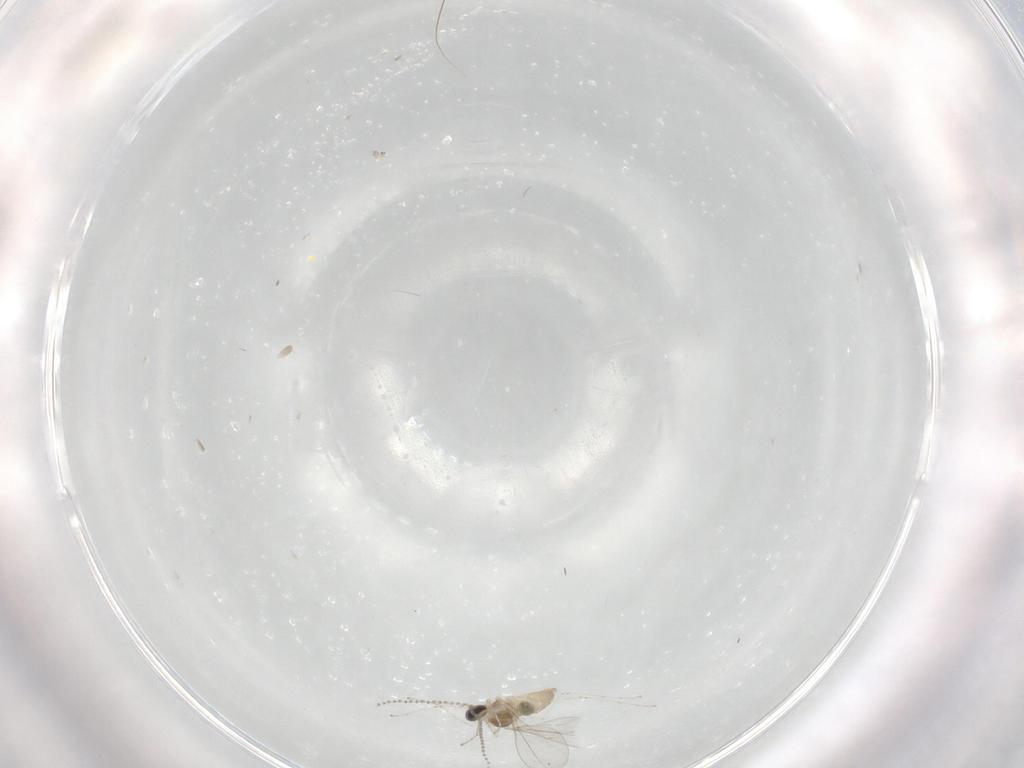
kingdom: Animalia
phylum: Arthropoda
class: Insecta
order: Diptera
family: Cecidomyiidae
